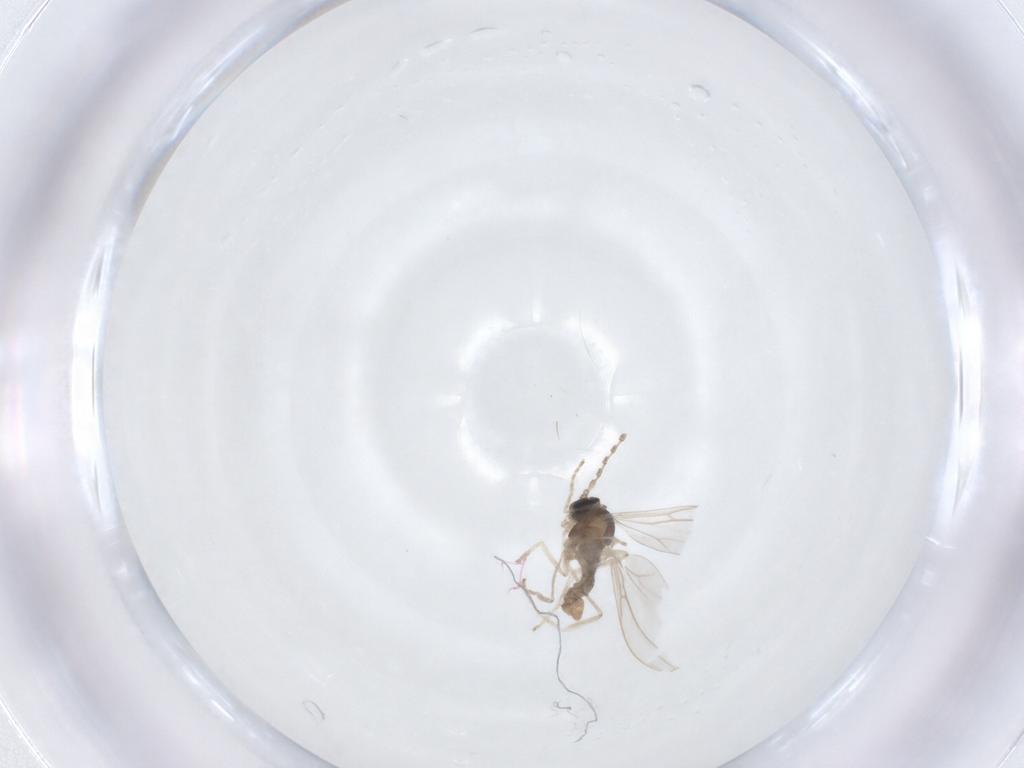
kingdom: Animalia
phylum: Arthropoda
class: Insecta
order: Diptera
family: Cecidomyiidae
